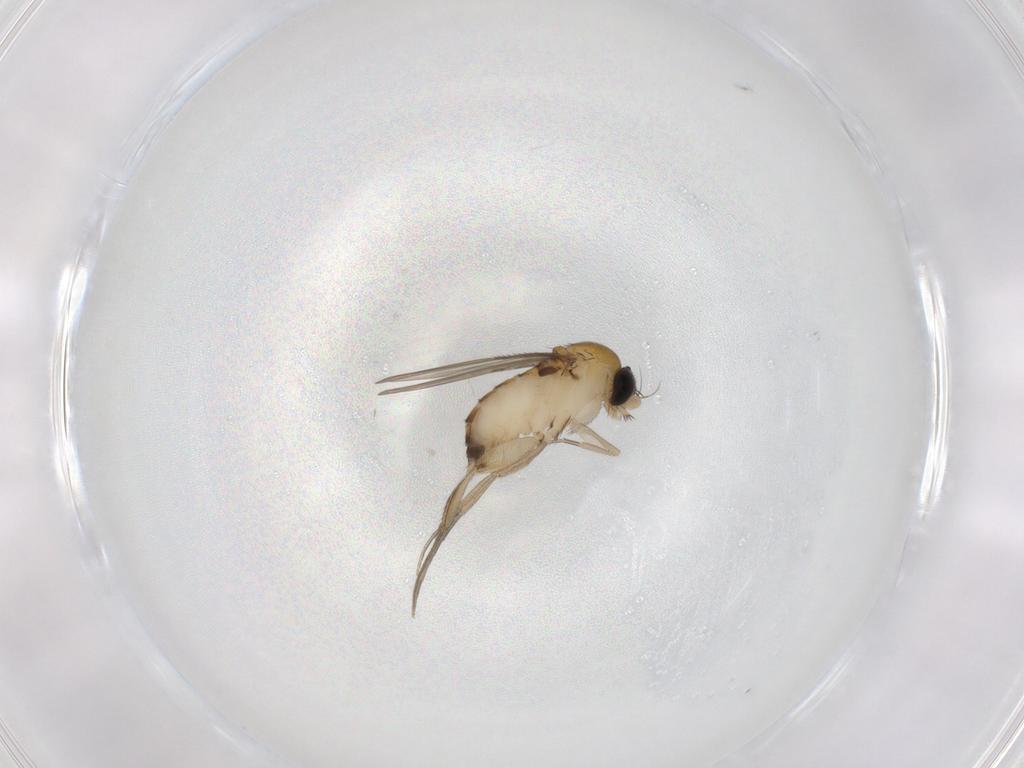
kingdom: Animalia
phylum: Arthropoda
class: Insecta
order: Diptera
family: Phoridae
